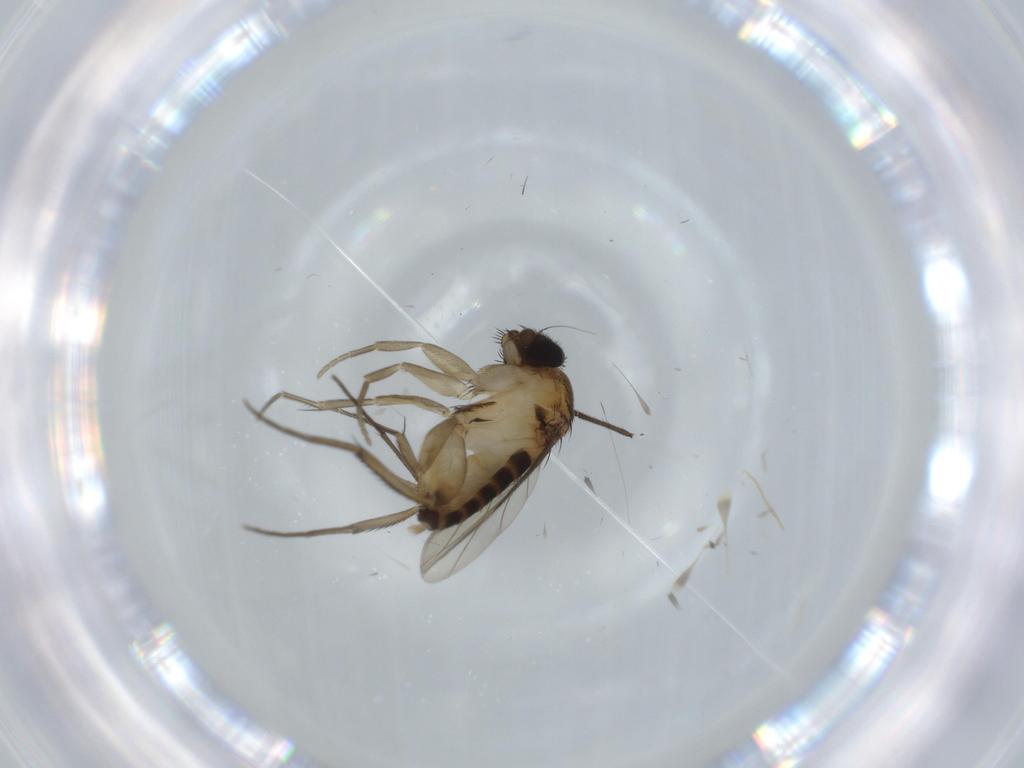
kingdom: Animalia
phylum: Arthropoda
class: Insecta
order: Diptera
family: Phoridae
